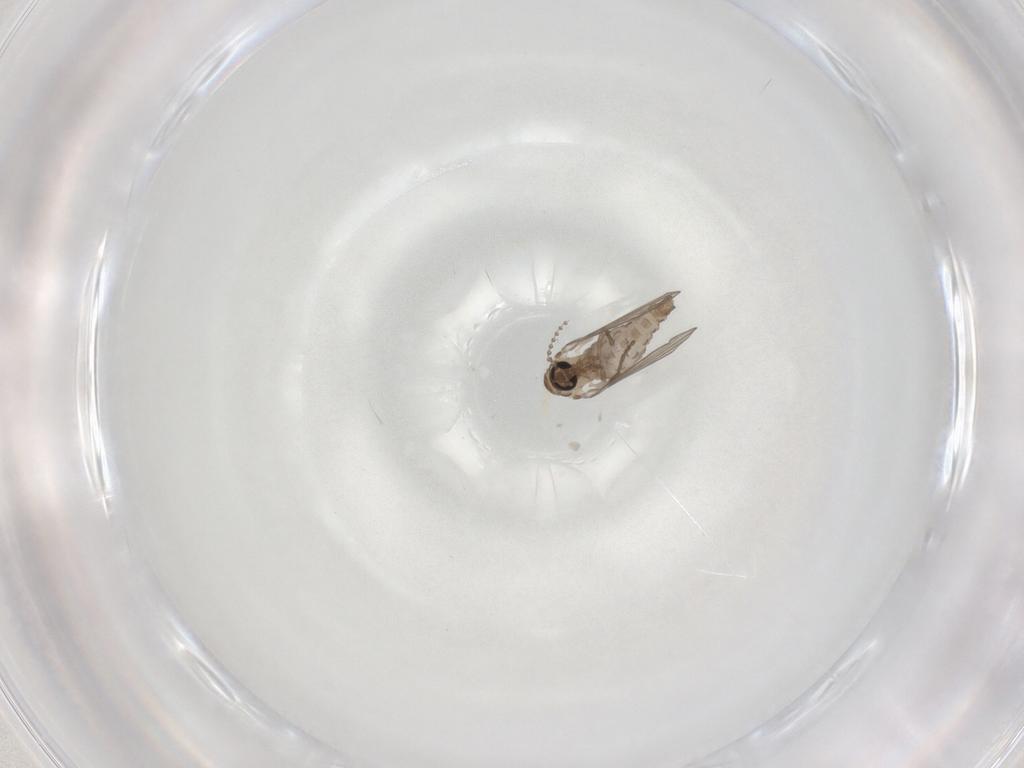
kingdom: Animalia
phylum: Arthropoda
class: Insecta
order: Diptera
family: Psychodidae
